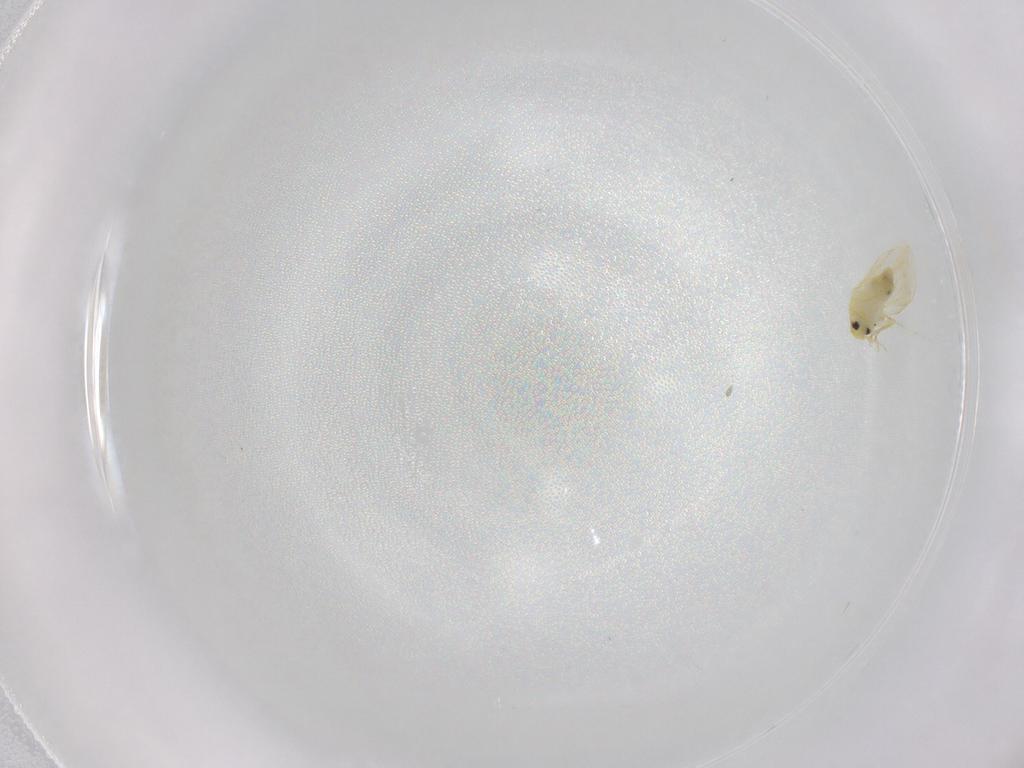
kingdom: Animalia
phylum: Arthropoda
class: Insecta
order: Hemiptera
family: Aleyrodidae
